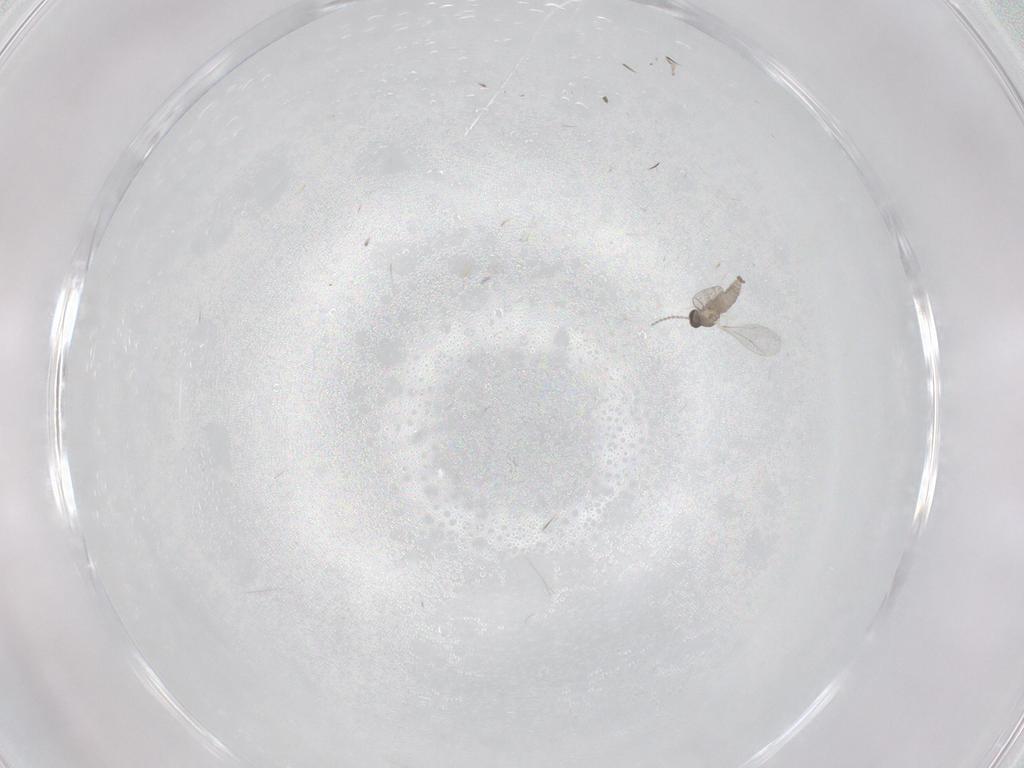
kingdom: Animalia
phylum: Arthropoda
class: Insecta
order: Diptera
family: Cecidomyiidae
